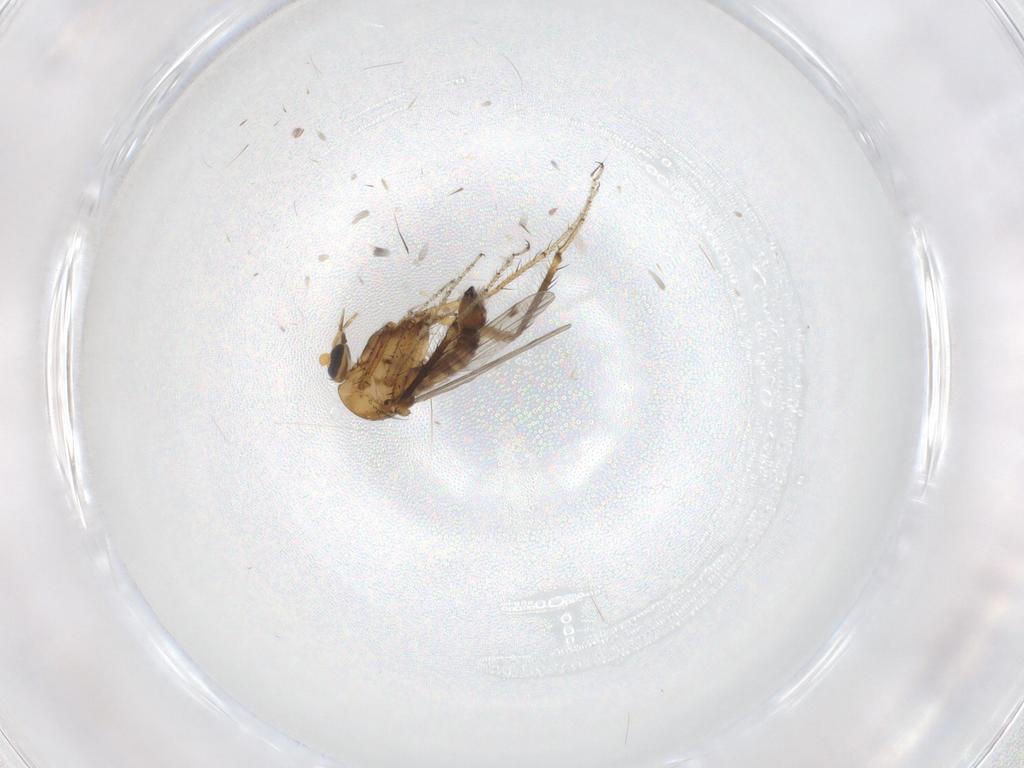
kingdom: Animalia
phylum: Arthropoda
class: Insecta
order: Diptera
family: Ceratopogonidae
